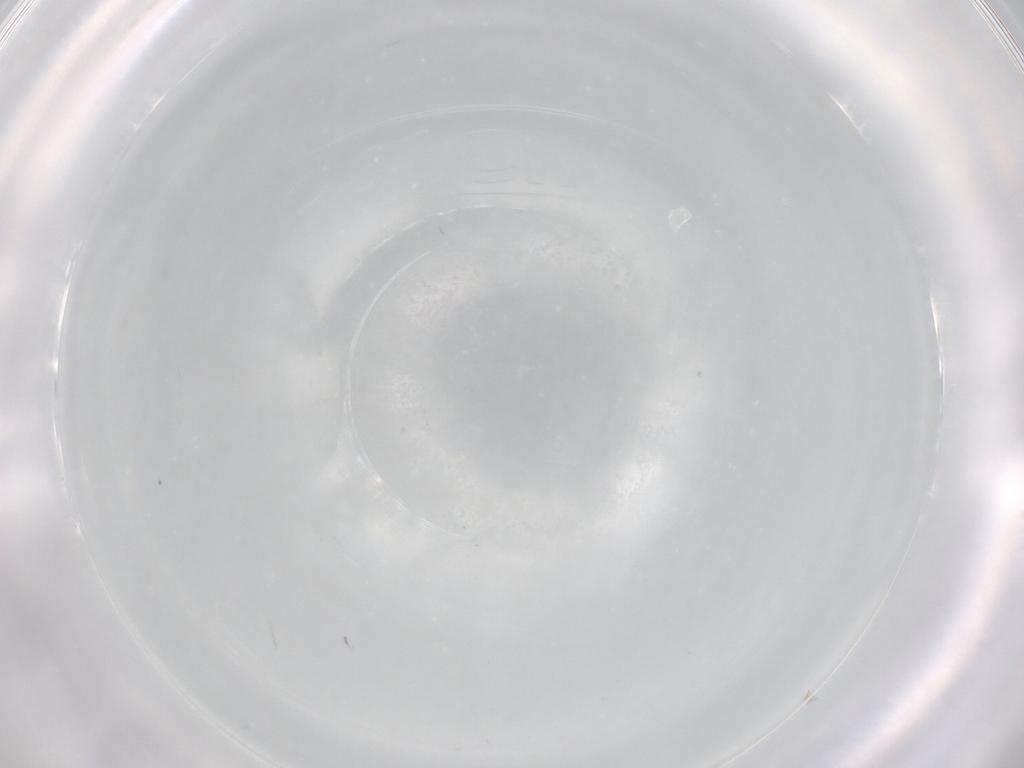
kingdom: Animalia
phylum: Arthropoda
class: Insecta
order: Diptera
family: Cecidomyiidae
